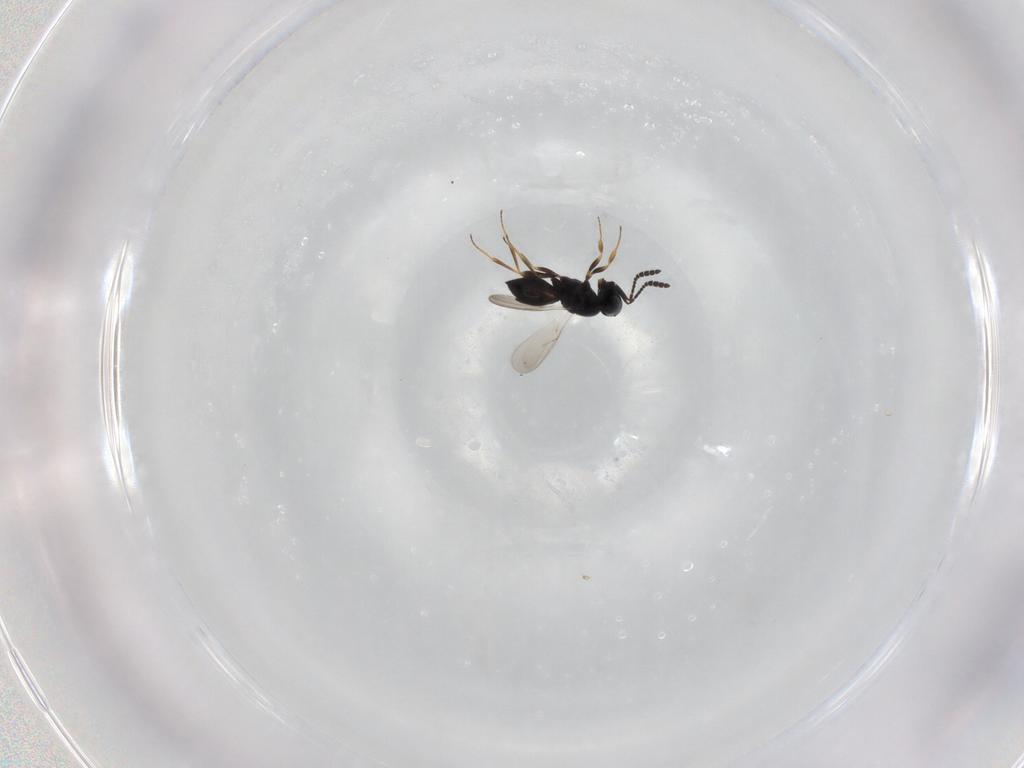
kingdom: Animalia
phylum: Arthropoda
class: Insecta
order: Hymenoptera
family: Scelionidae
